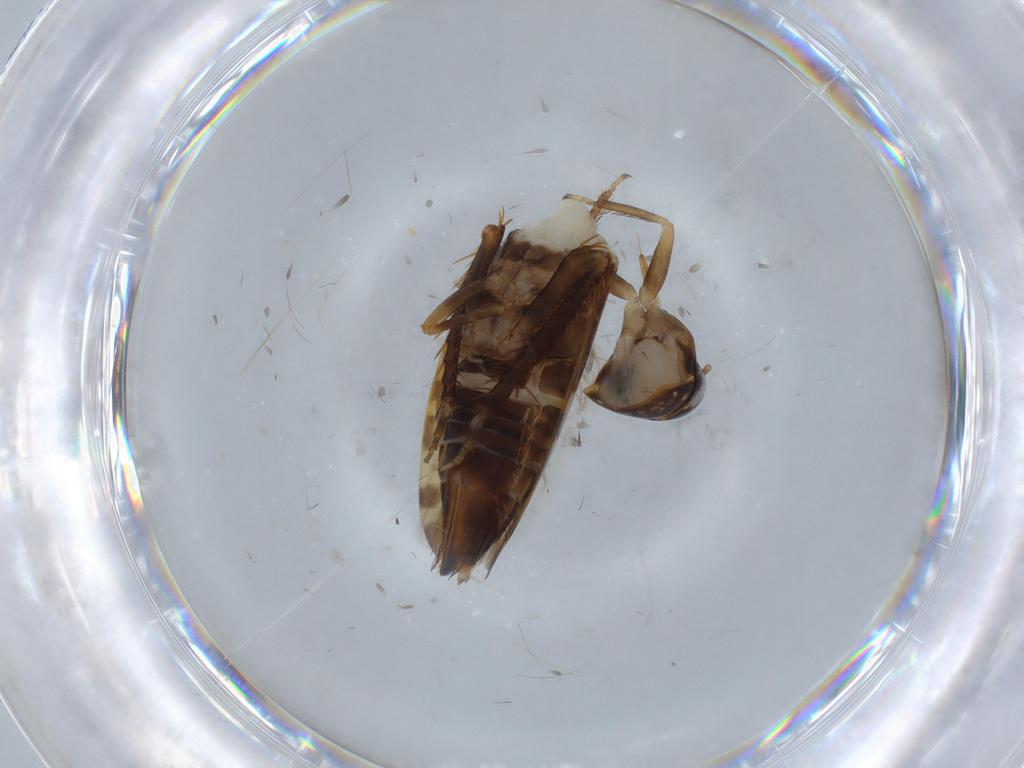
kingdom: Animalia
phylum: Arthropoda
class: Insecta
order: Hemiptera
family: Cicadellidae
